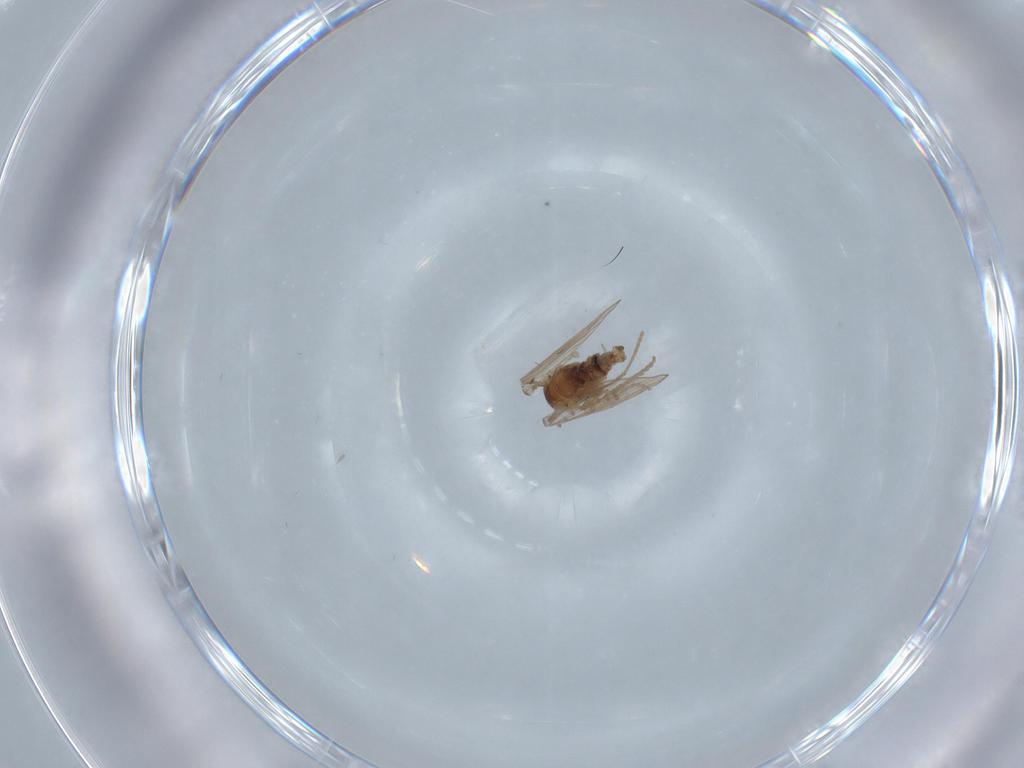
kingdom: Animalia
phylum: Arthropoda
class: Insecta
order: Diptera
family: Psychodidae
